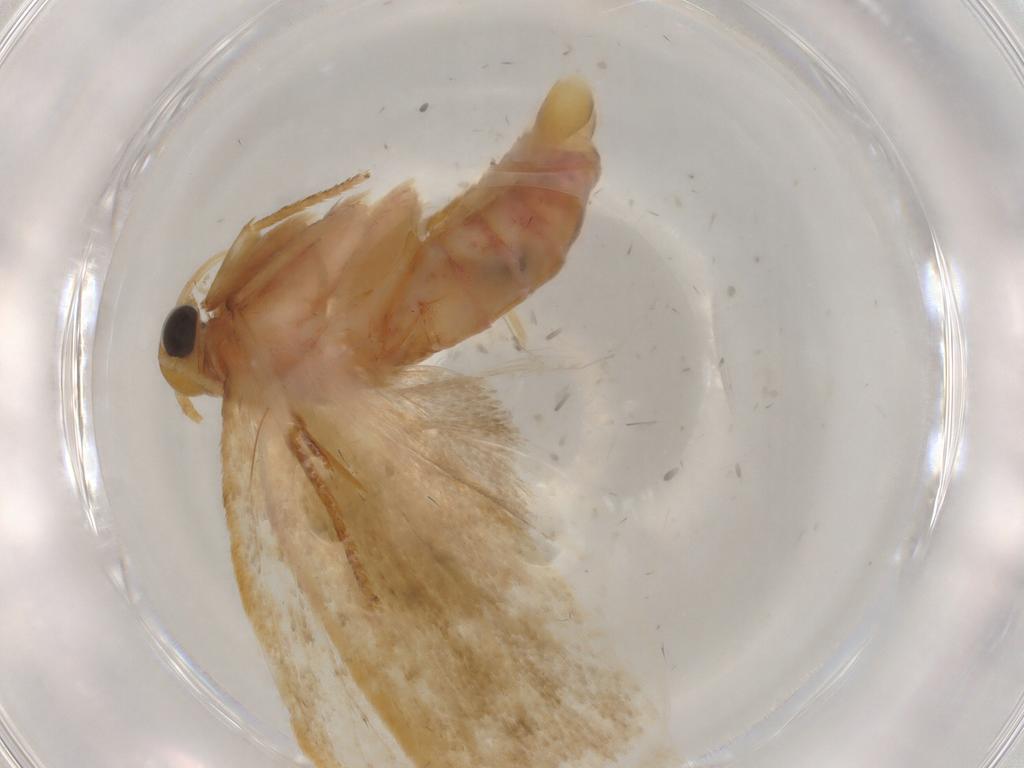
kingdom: Animalia
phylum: Arthropoda
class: Insecta
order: Lepidoptera
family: Autostichidae
